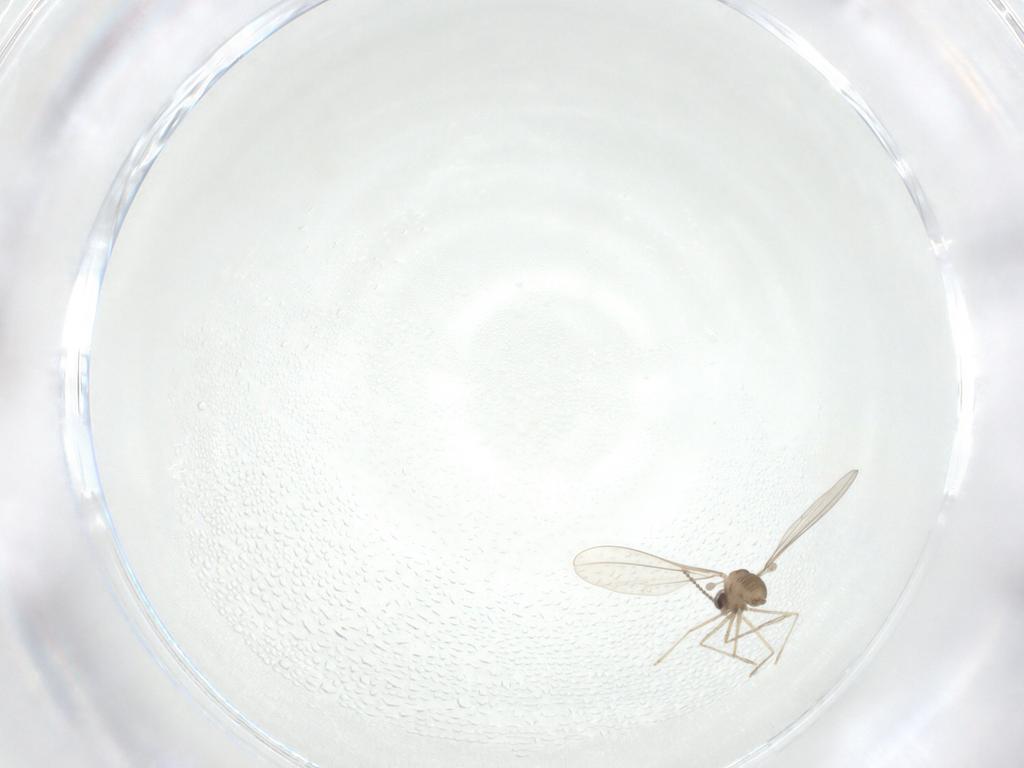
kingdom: Animalia
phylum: Arthropoda
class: Insecta
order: Diptera
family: Cecidomyiidae
